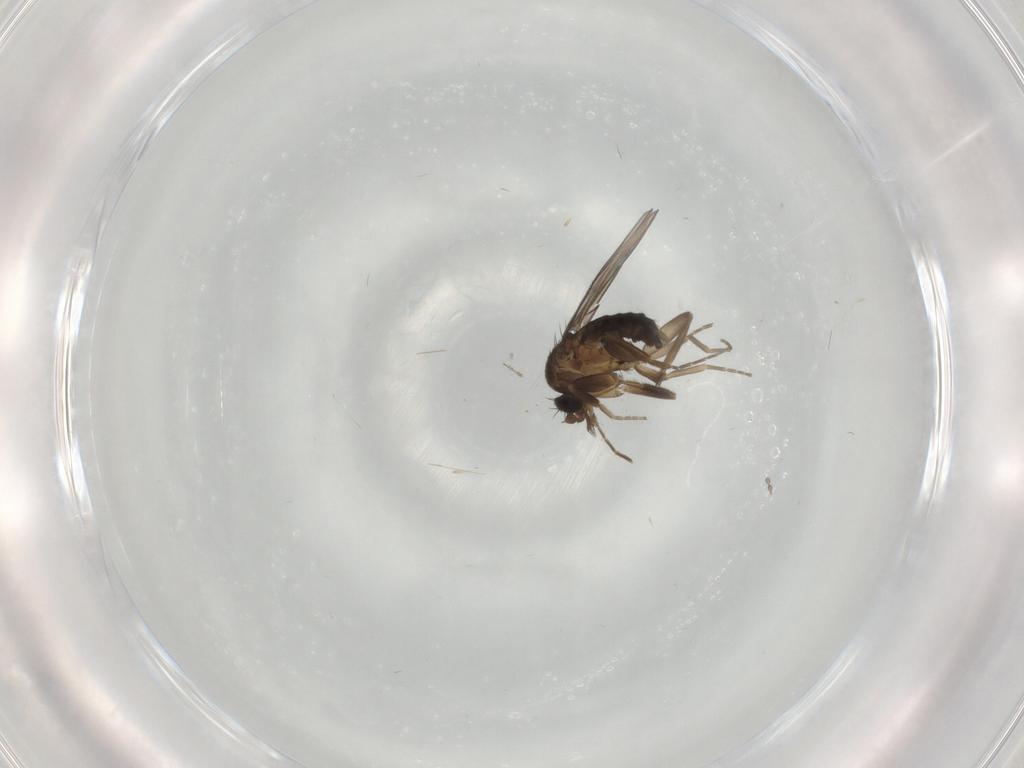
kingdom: Animalia
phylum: Arthropoda
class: Insecta
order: Diptera
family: Cecidomyiidae
